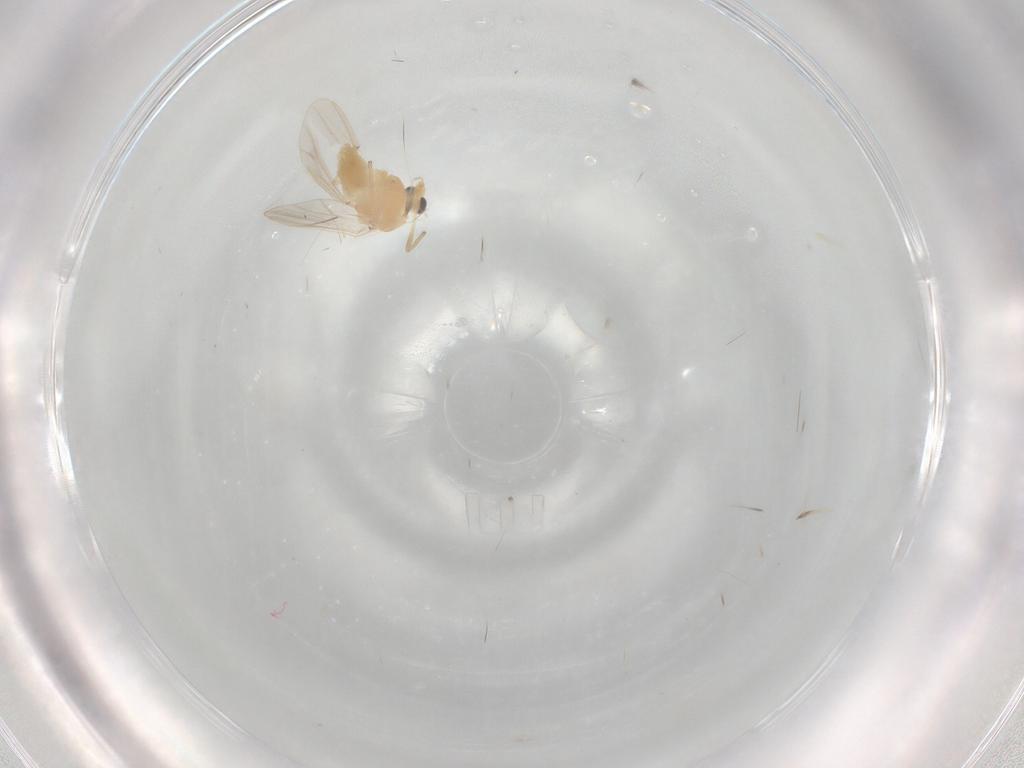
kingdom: Animalia
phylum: Arthropoda
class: Insecta
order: Diptera
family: Chironomidae
